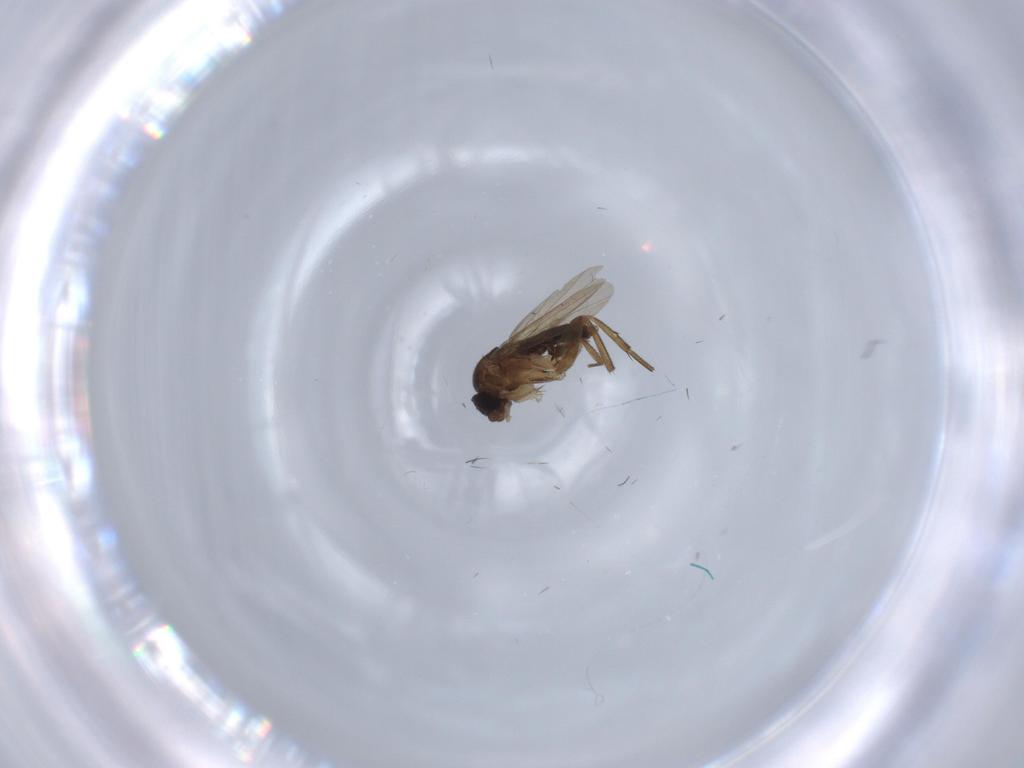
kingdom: Animalia
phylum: Arthropoda
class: Insecta
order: Diptera
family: Phoridae
